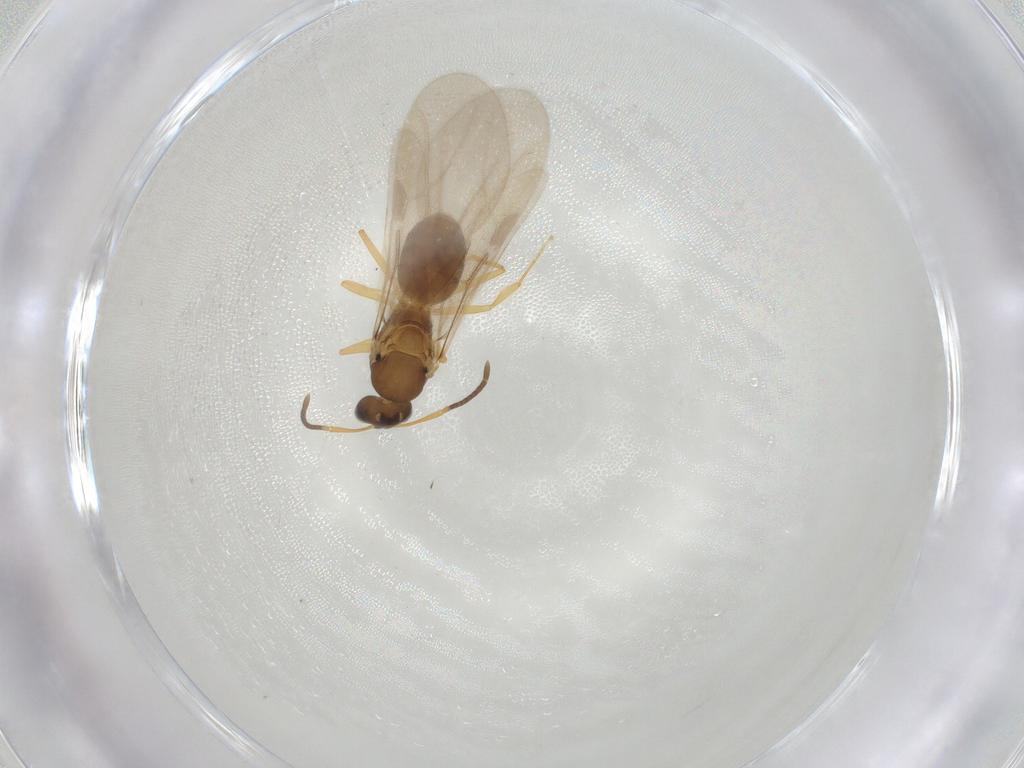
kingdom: Animalia
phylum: Arthropoda
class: Insecta
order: Hymenoptera
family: Formicidae
